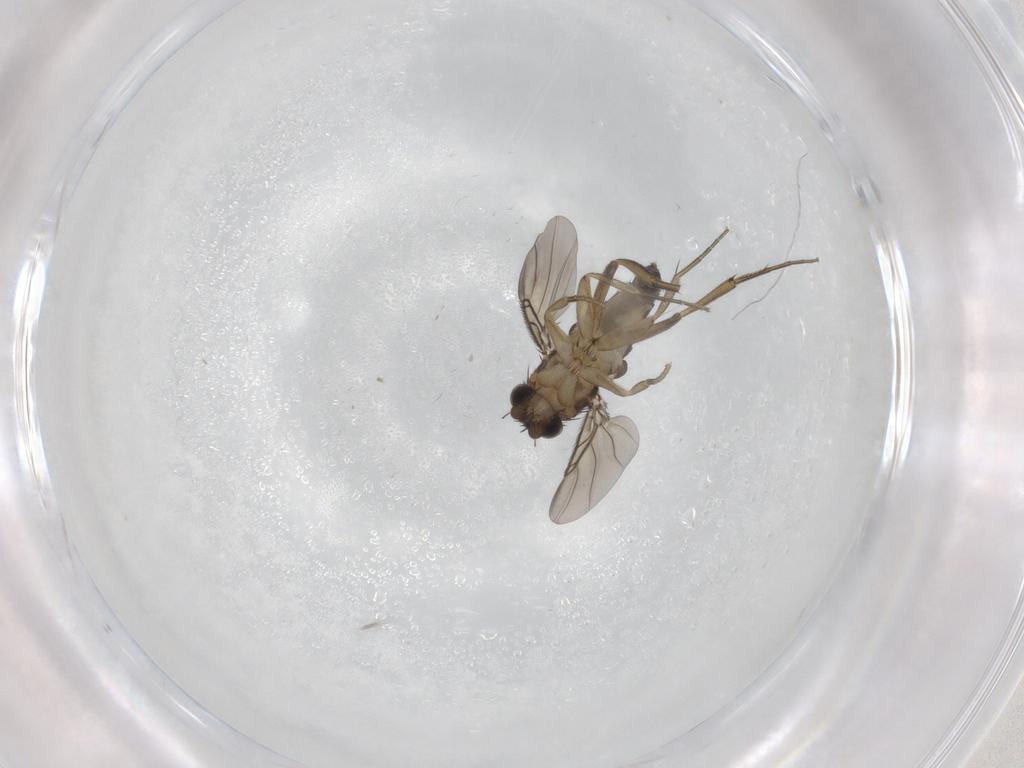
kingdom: Animalia
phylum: Arthropoda
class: Insecta
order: Diptera
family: Phoridae
